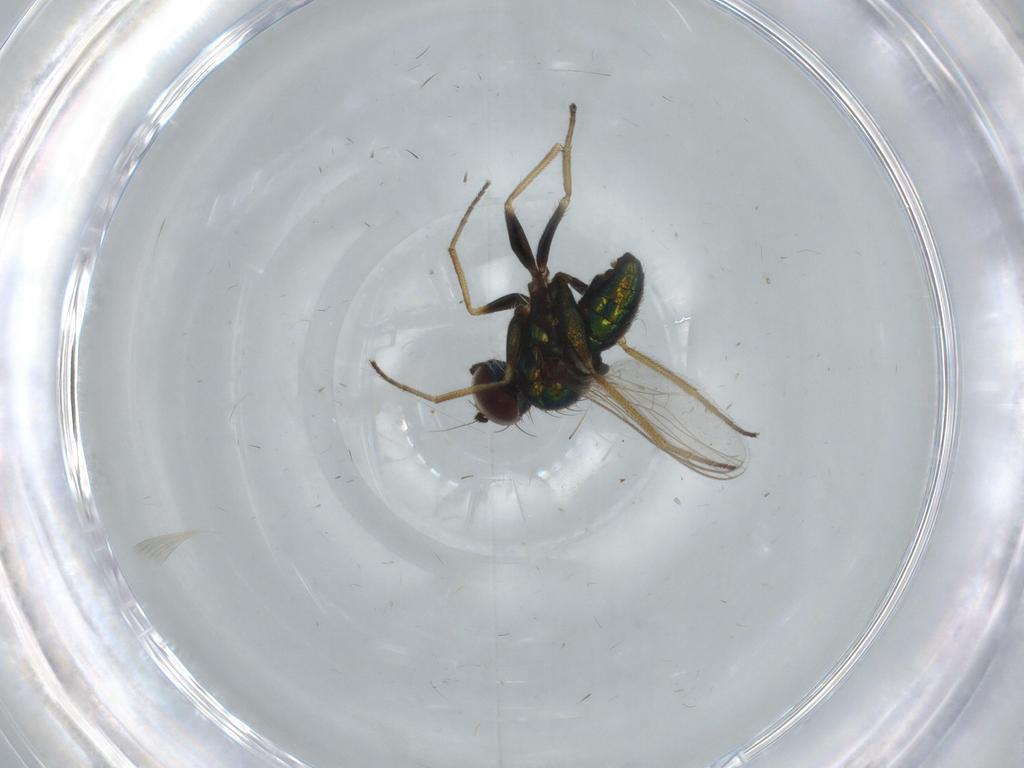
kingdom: Animalia
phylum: Arthropoda
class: Insecta
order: Diptera
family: Dolichopodidae
